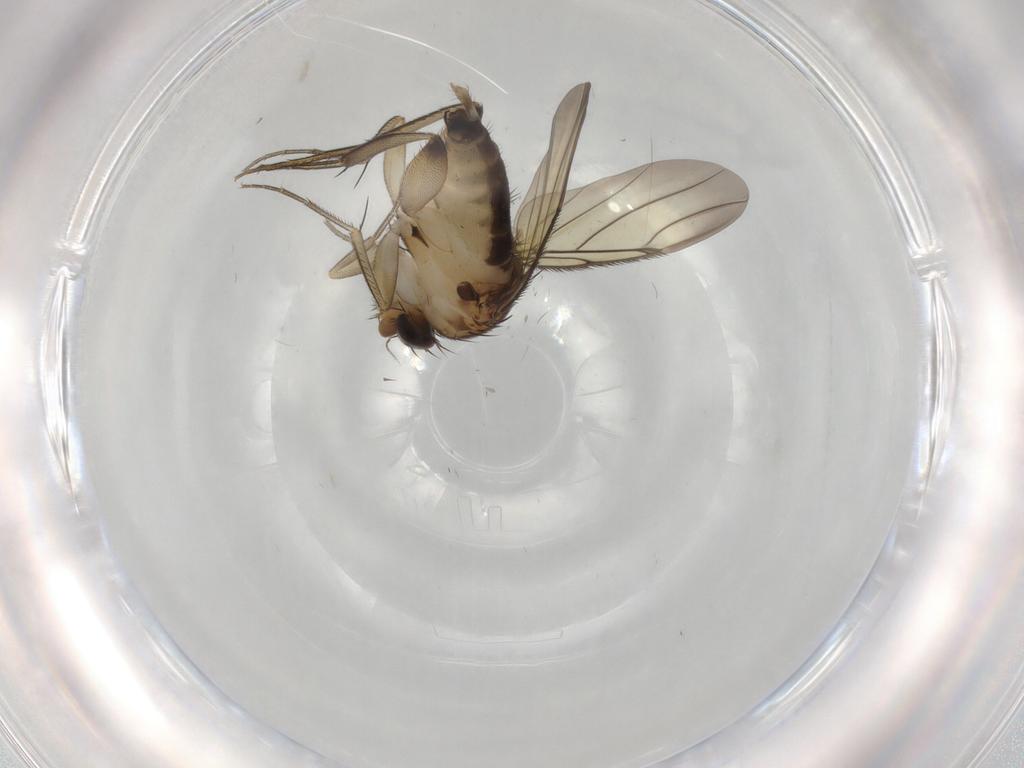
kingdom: Animalia
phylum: Arthropoda
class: Insecta
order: Diptera
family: Phoridae
